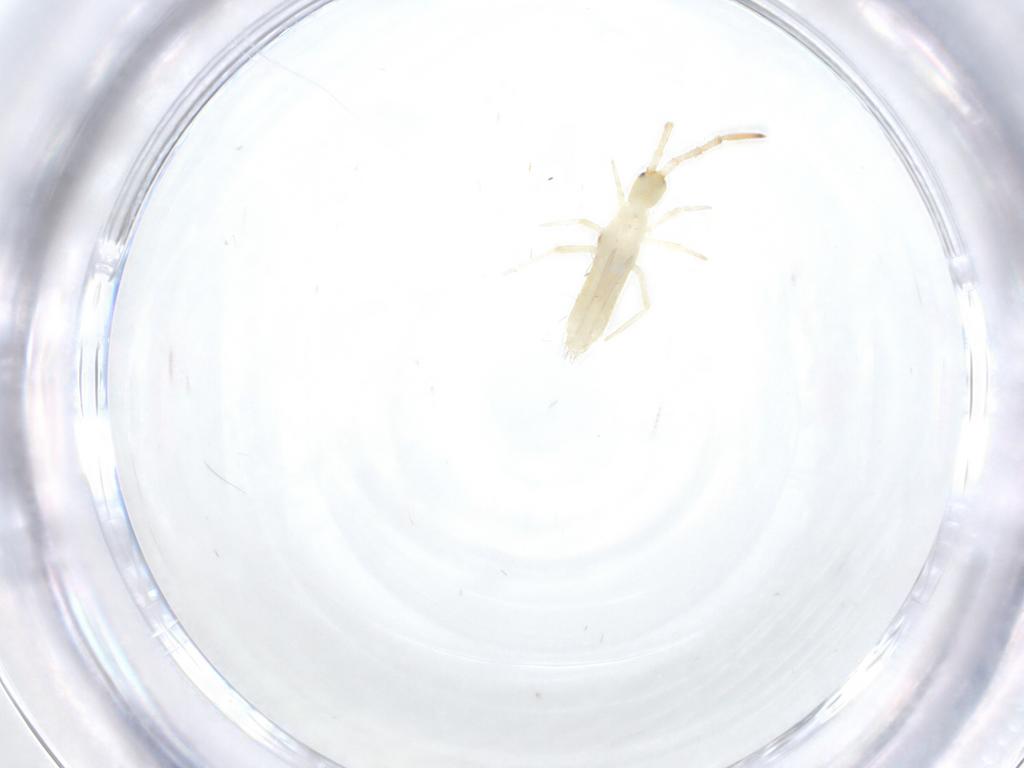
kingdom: Animalia
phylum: Arthropoda
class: Collembola
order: Entomobryomorpha
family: Entomobryidae
